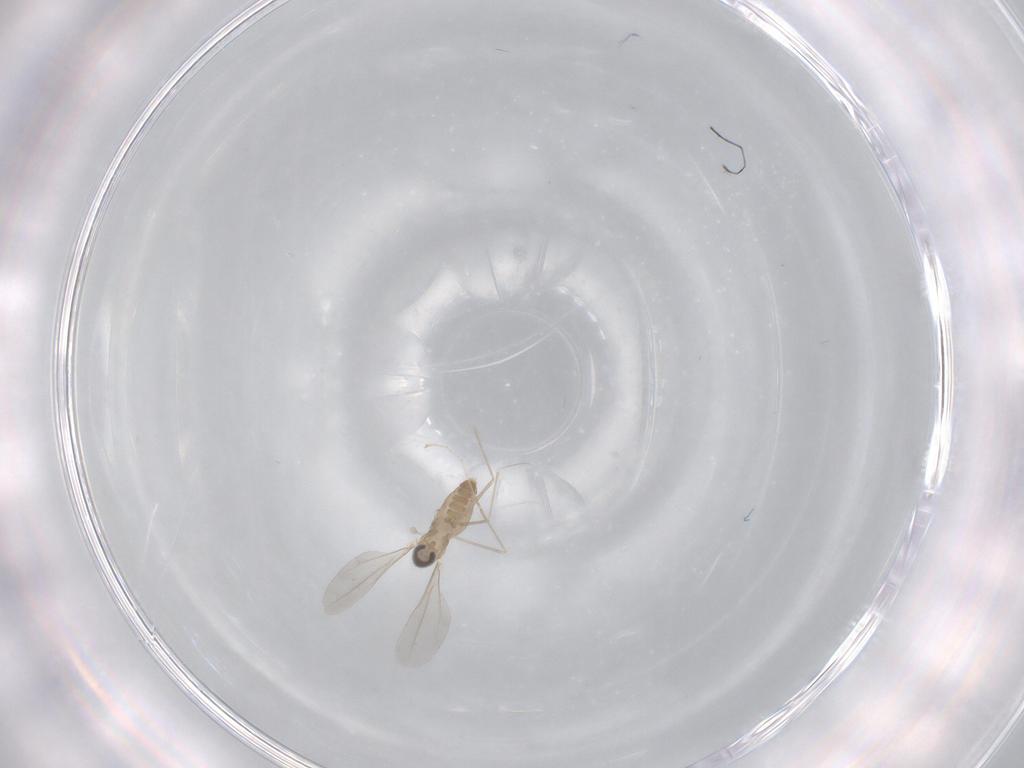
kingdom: Animalia
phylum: Arthropoda
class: Insecta
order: Diptera
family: Cecidomyiidae
